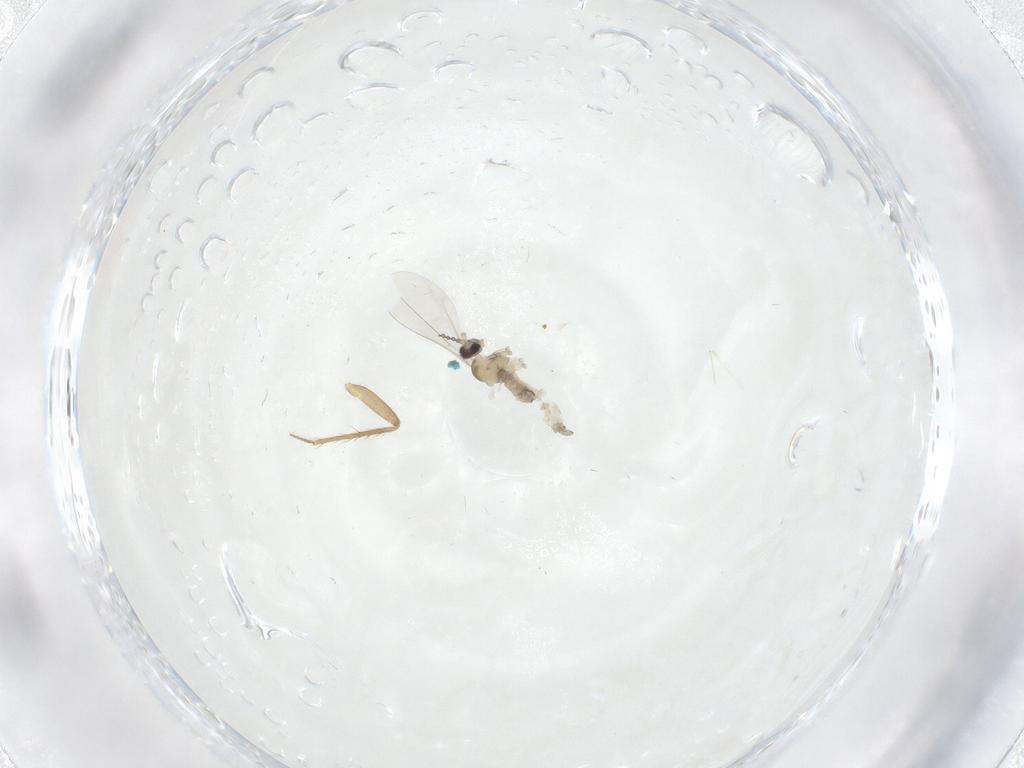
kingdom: Animalia
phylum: Arthropoda
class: Insecta
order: Diptera
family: Cecidomyiidae
